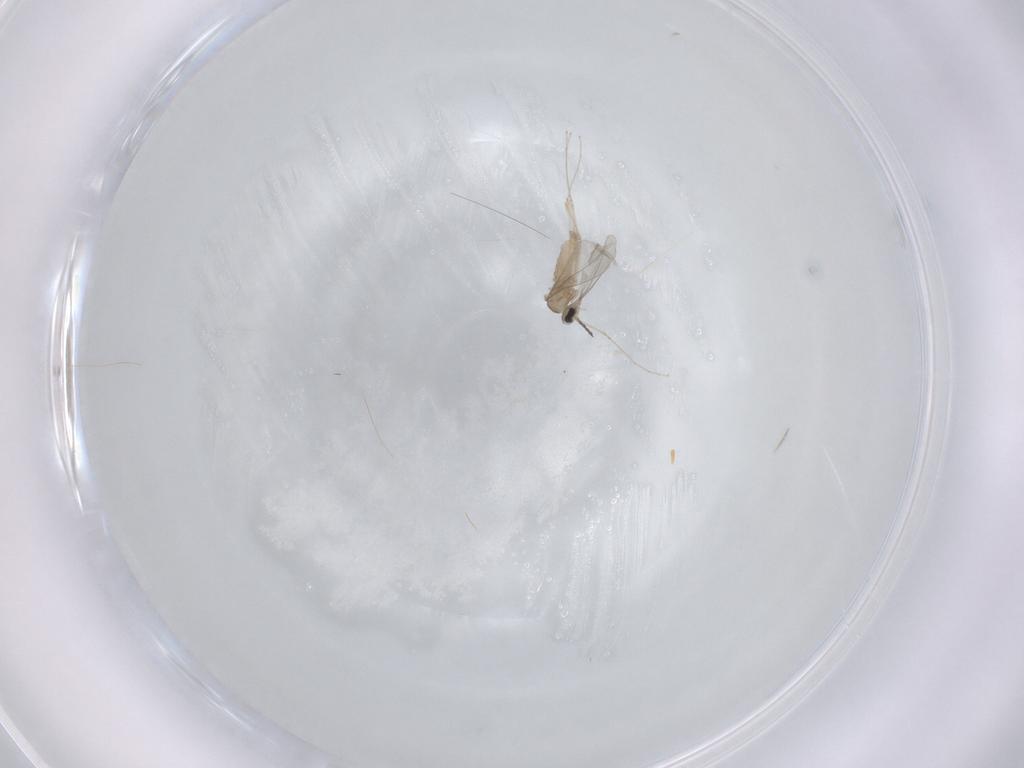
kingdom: Animalia
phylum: Arthropoda
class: Insecta
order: Diptera
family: Cecidomyiidae
